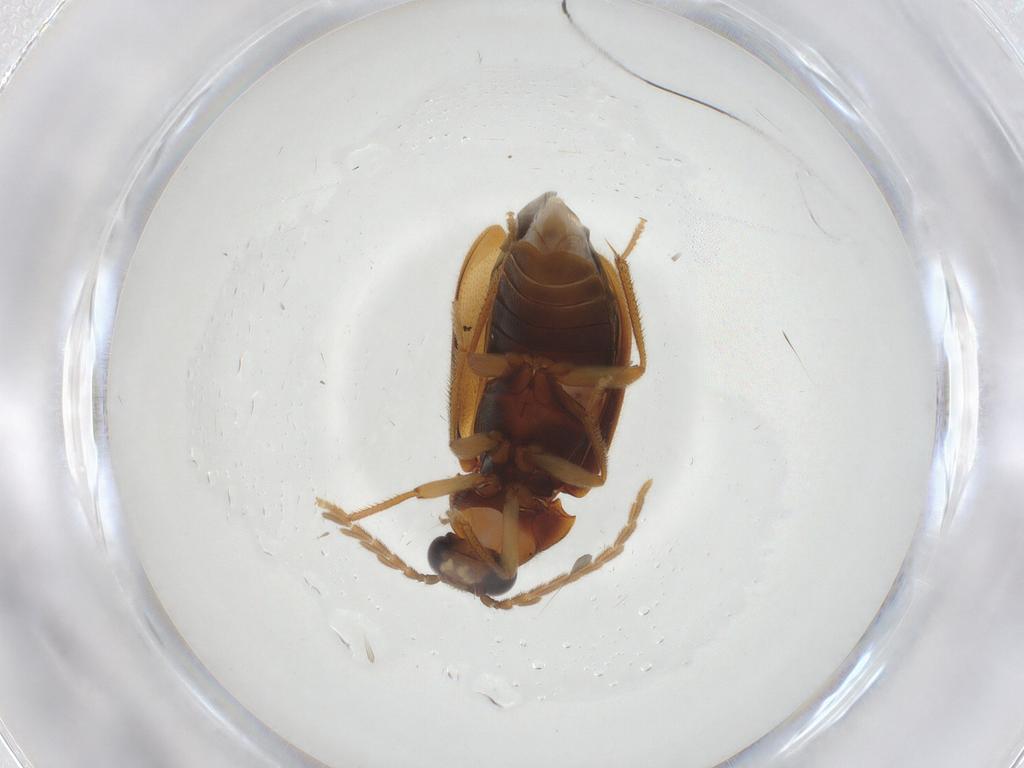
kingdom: Animalia
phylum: Arthropoda
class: Insecta
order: Coleoptera
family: Ptilodactylidae
